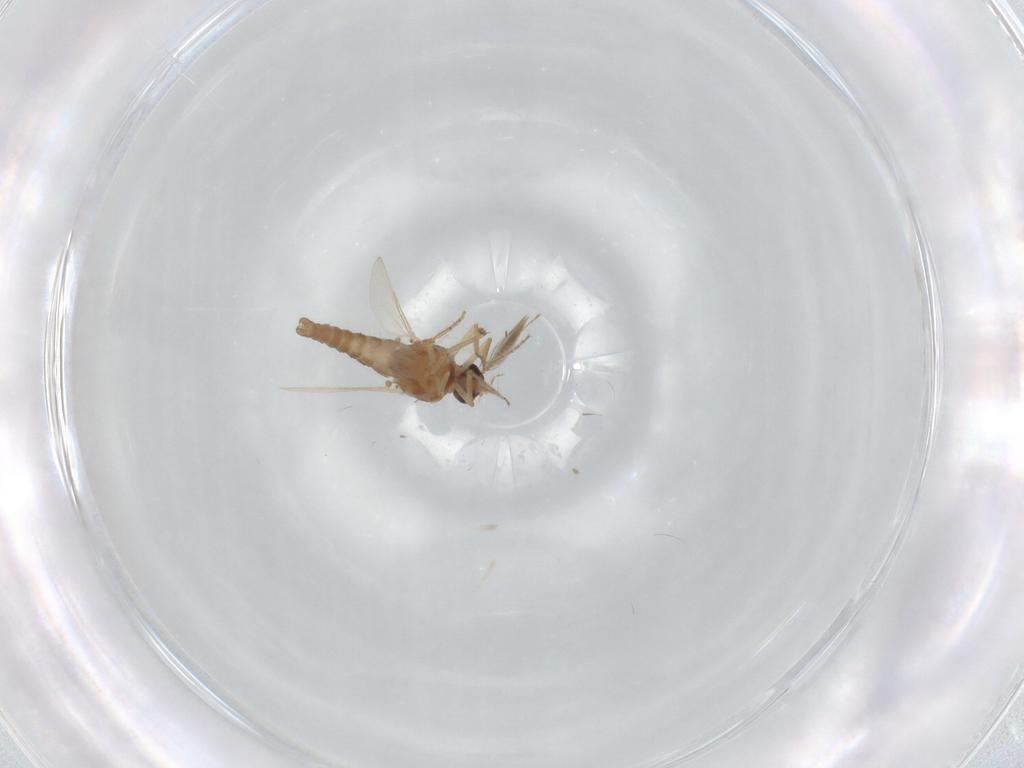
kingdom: Animalia
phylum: Arthropoda
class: Insecta
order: Diptera
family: Ceratopogonidae
